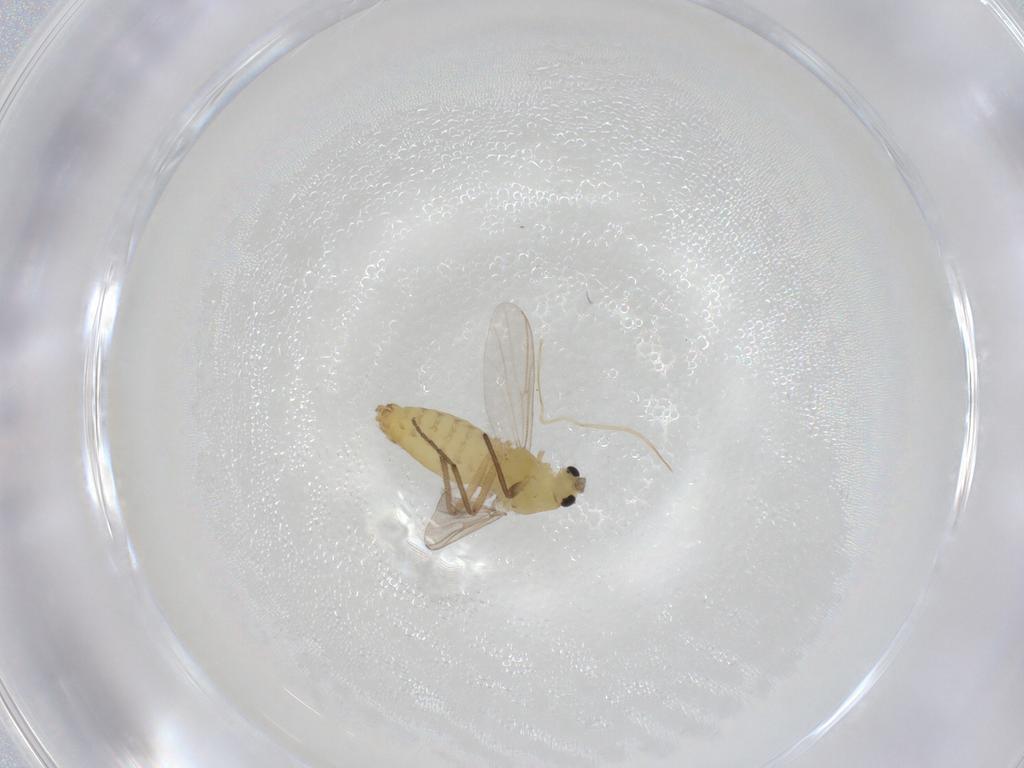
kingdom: Animalia
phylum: Arthropoda
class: Insecta
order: Diptera
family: Chironomidae
